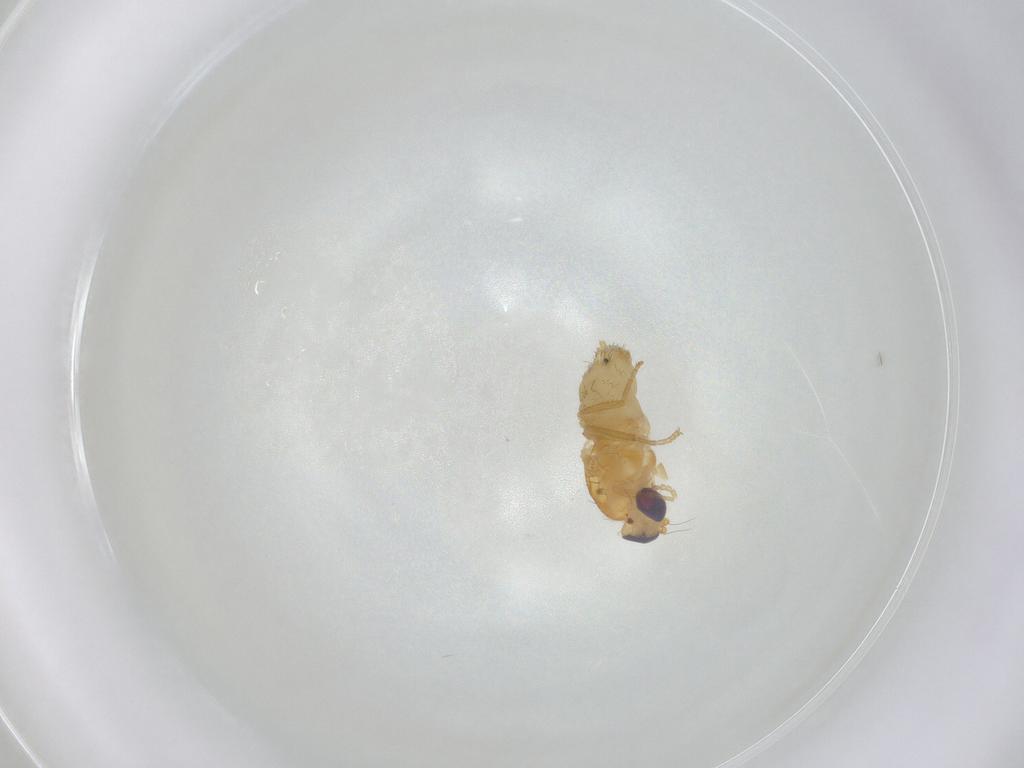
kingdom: Animalia
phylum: Arthropoda
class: Insecta
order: Diptera
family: Chyromyidae
